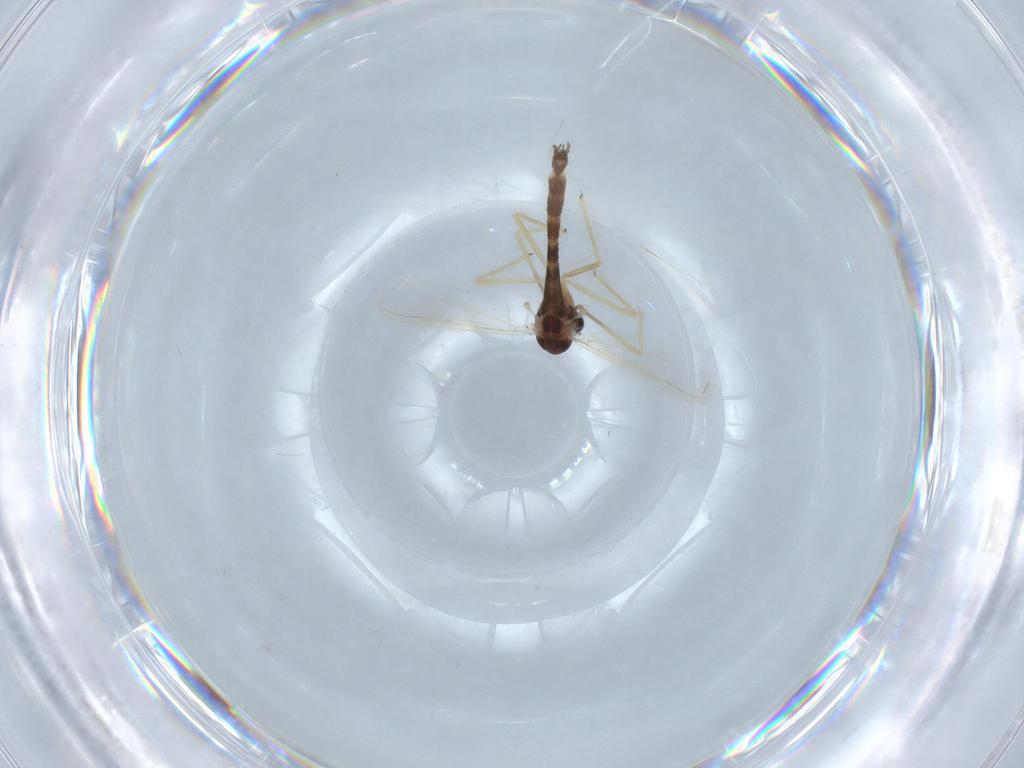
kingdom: Animalia
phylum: Arthropoda
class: Insecta
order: Diptera
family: Chironomidae
